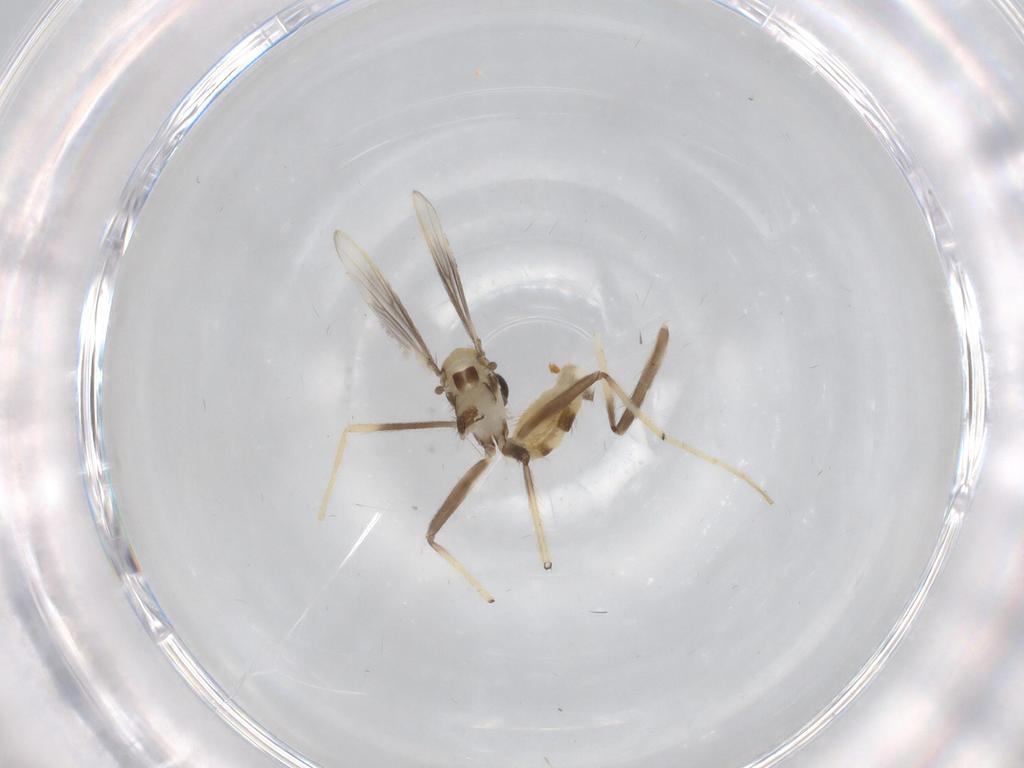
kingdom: Animalia
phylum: Arthropoda
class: Insecta
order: Diptera
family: Chironomidae
